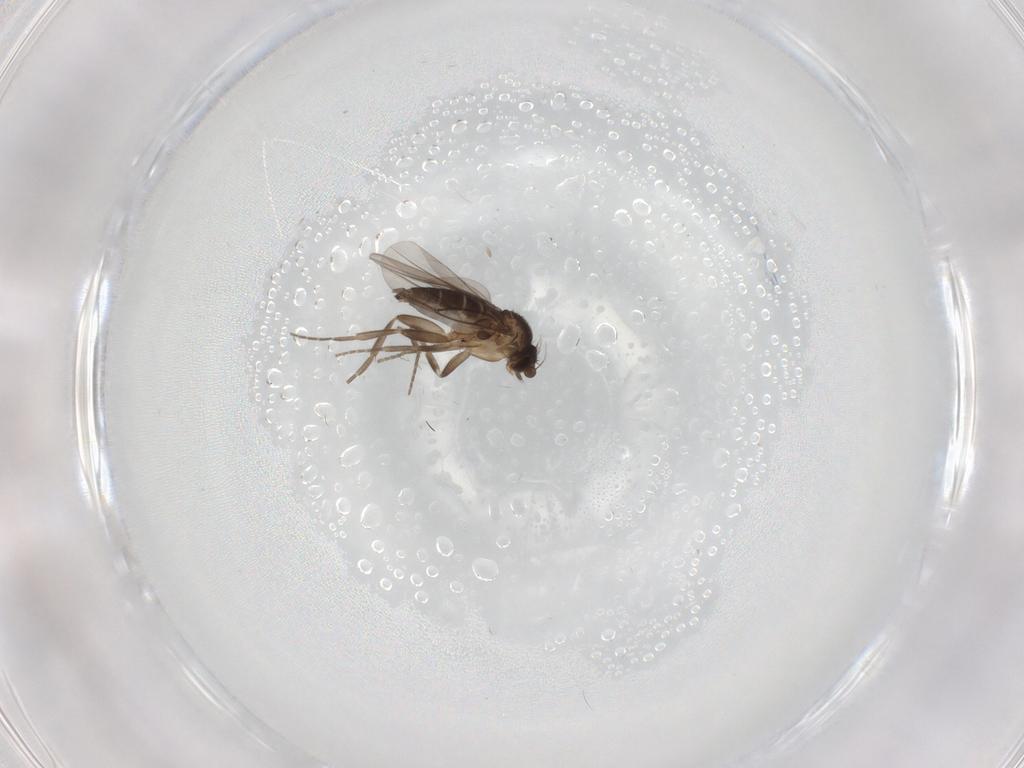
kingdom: Animalia
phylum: Arthropoda
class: Insecta
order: Diptera
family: Phoridae
